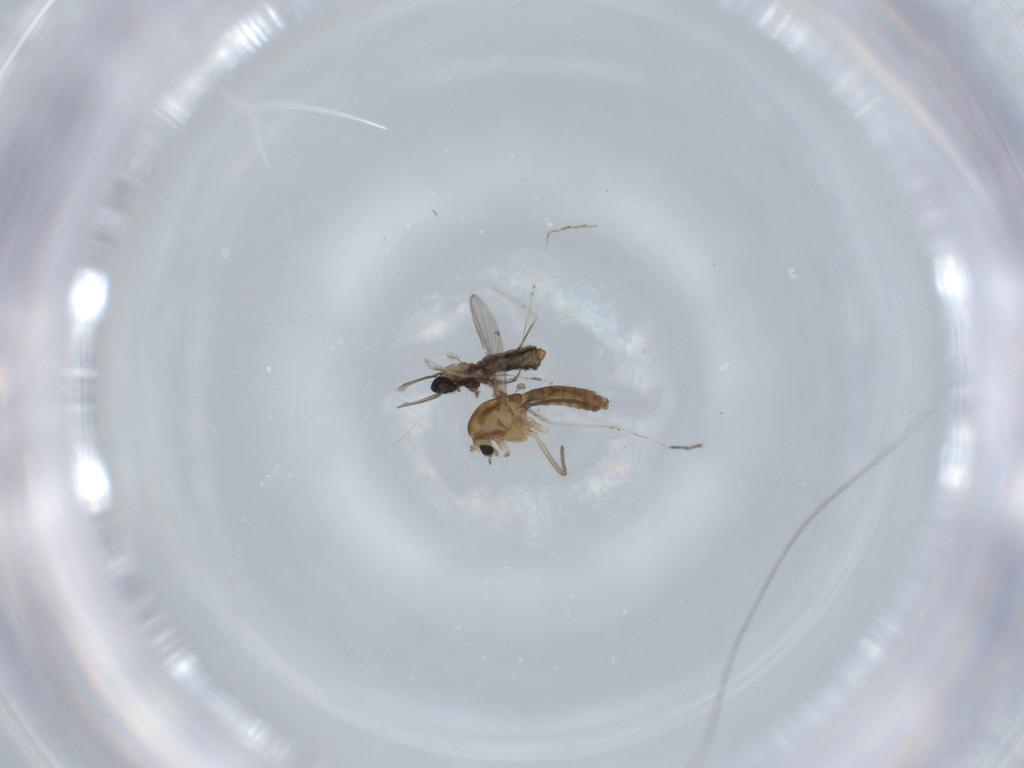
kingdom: Animalia
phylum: Arthropoda
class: Insecta
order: Diptera
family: Cecidomyiidae
